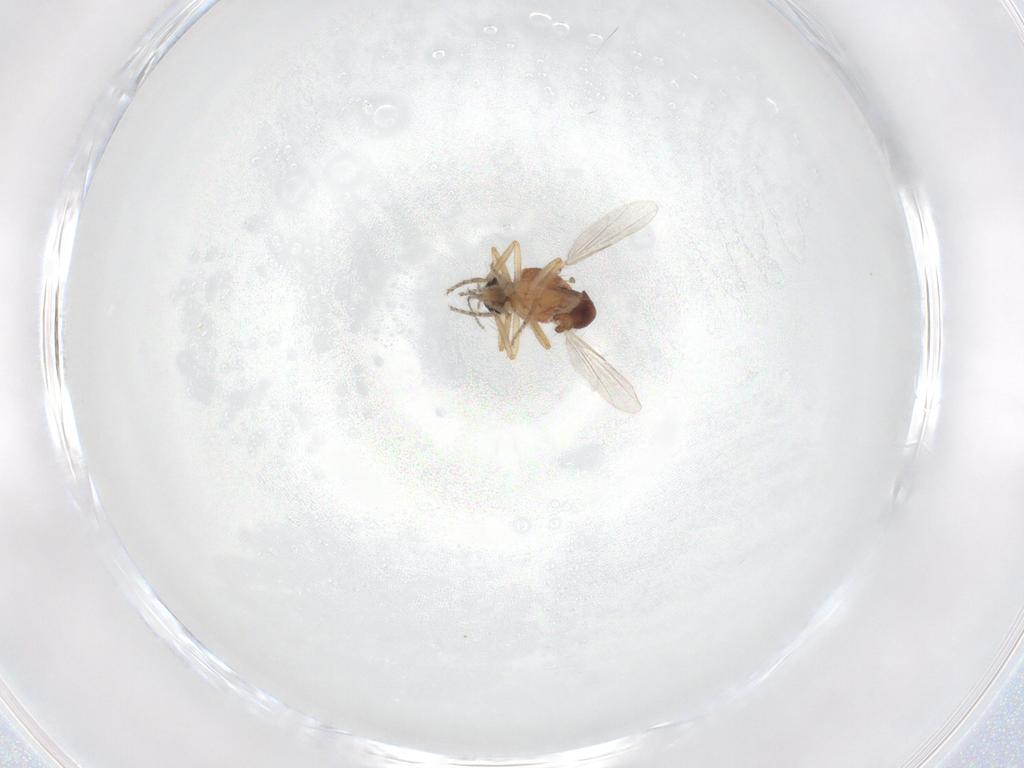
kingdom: Animalia
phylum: Arthropoda
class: Insecta
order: Diptera
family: Ceratopogonidae
